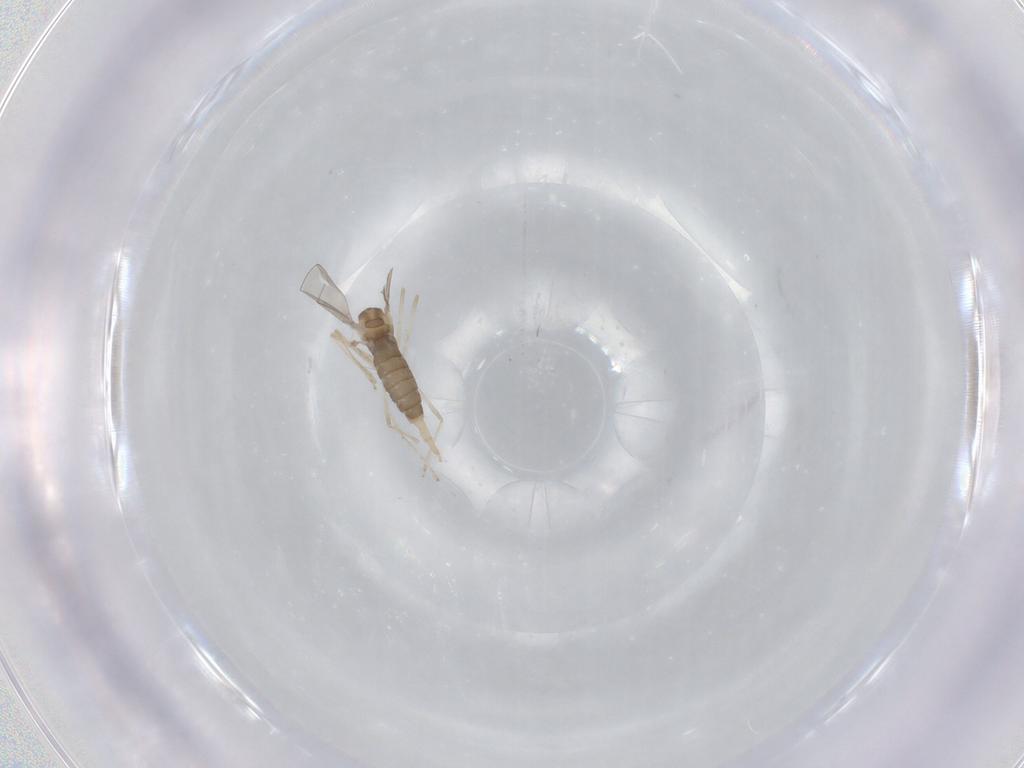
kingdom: Animalia
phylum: Arthropoda
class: Insecta
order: Diptera
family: Cecidomyiidae
